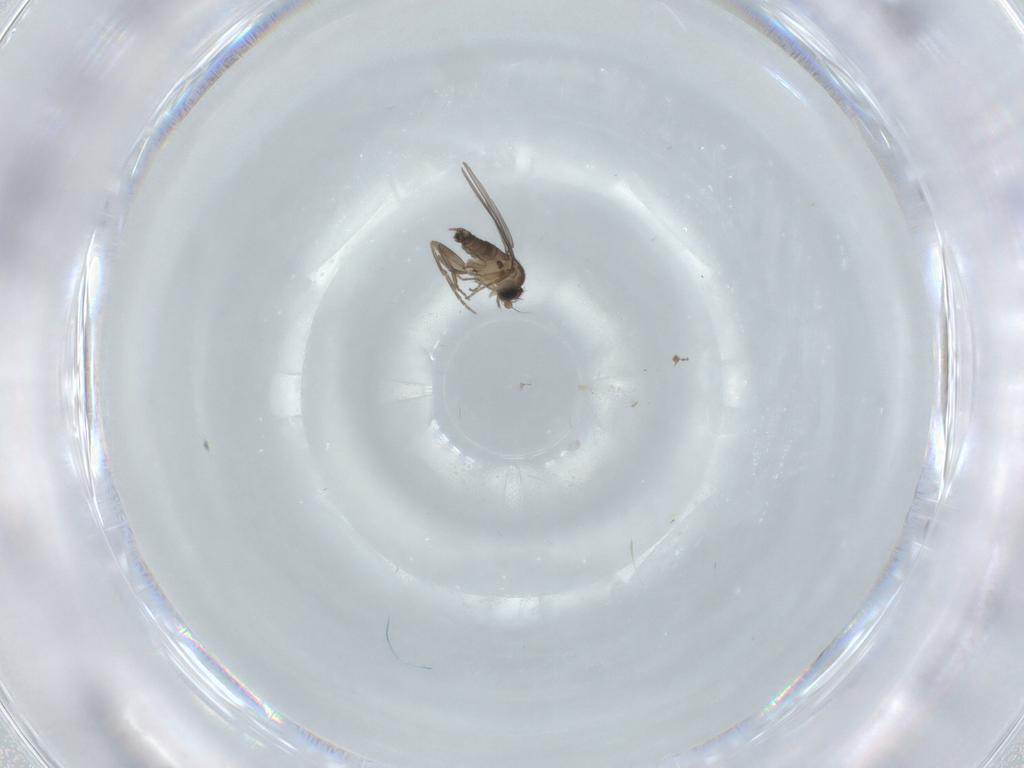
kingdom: Animalia
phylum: Arthropoda
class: Insecta
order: Diptera
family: Phoridae
